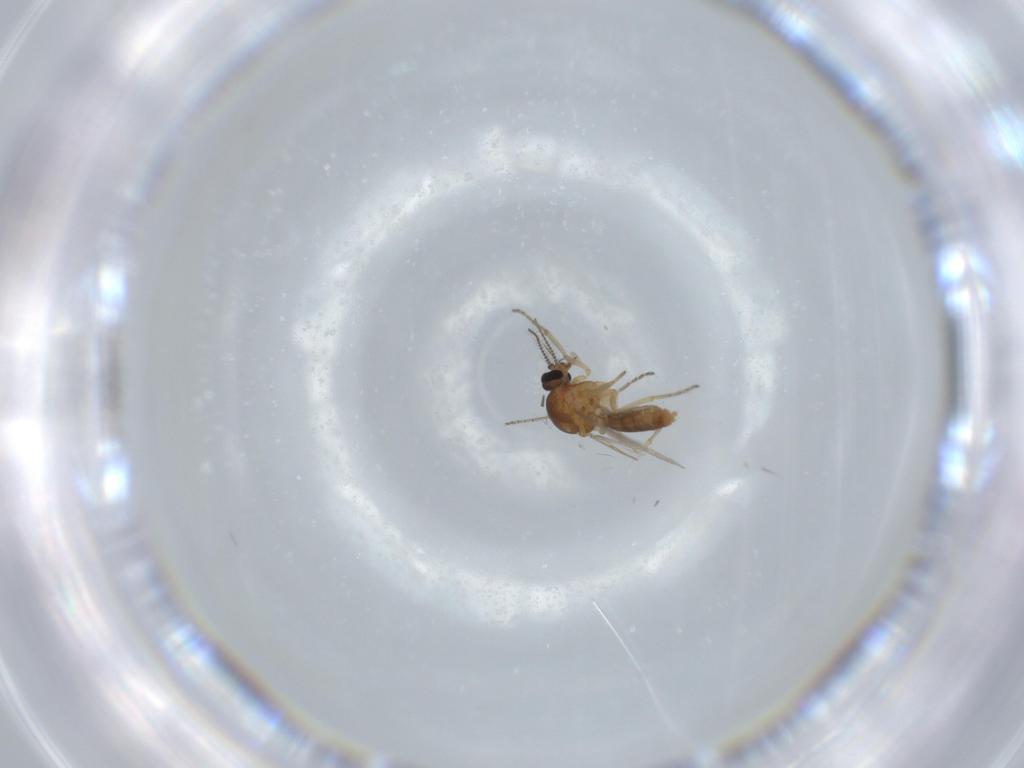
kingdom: Animalia
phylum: Arthropoda
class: Insecta
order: Diptera
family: Ceratopogonidae
